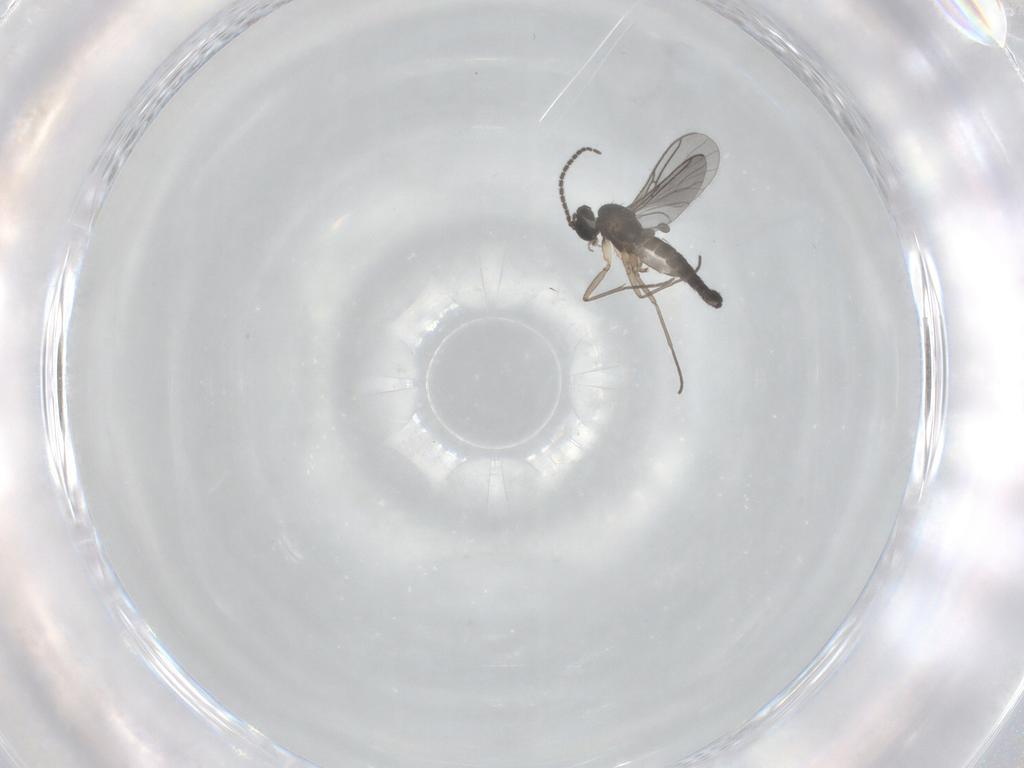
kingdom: Animalia
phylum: Arthropoda
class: Insecta
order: Diptera
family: Sciaridae
